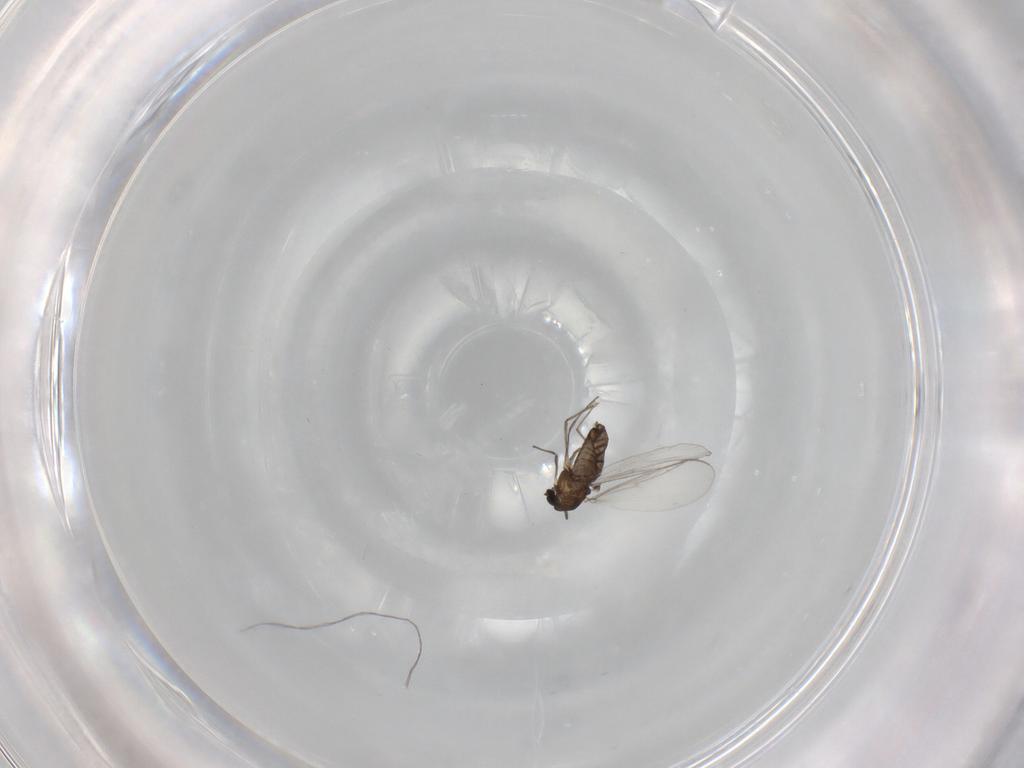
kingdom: Animalia
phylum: Arthropoda
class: Insecta
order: Diptera
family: Chironomidae
